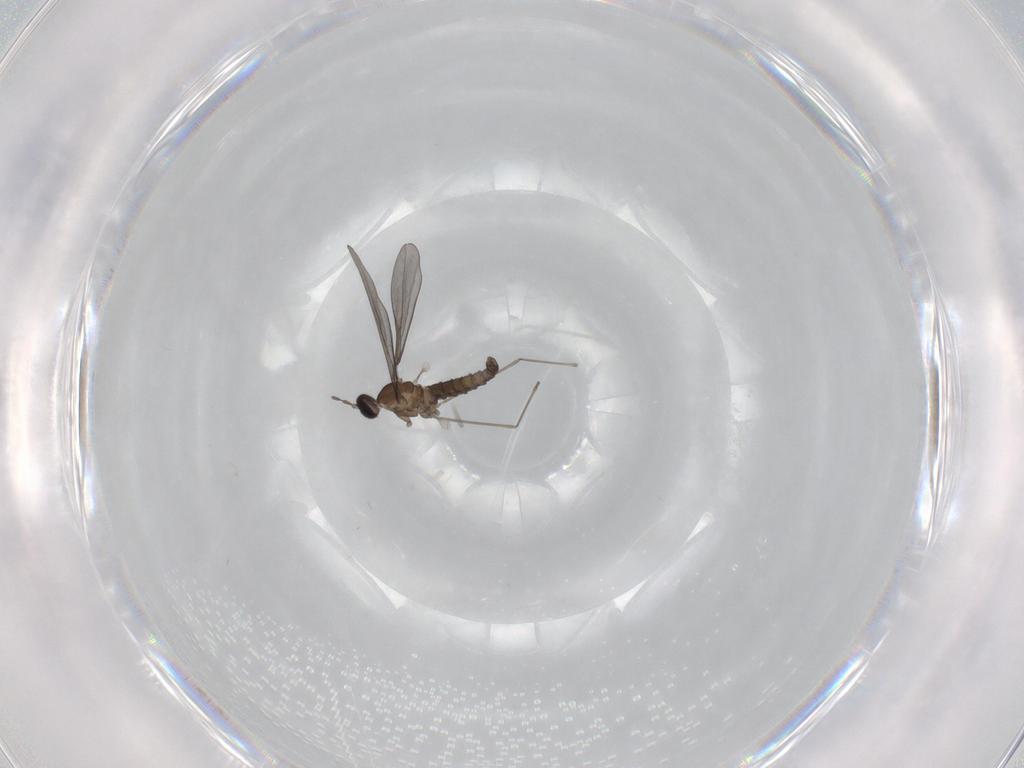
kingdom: Animalia
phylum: Arthropoda
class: Insecta
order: Diptera
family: Cecidomyiidae
